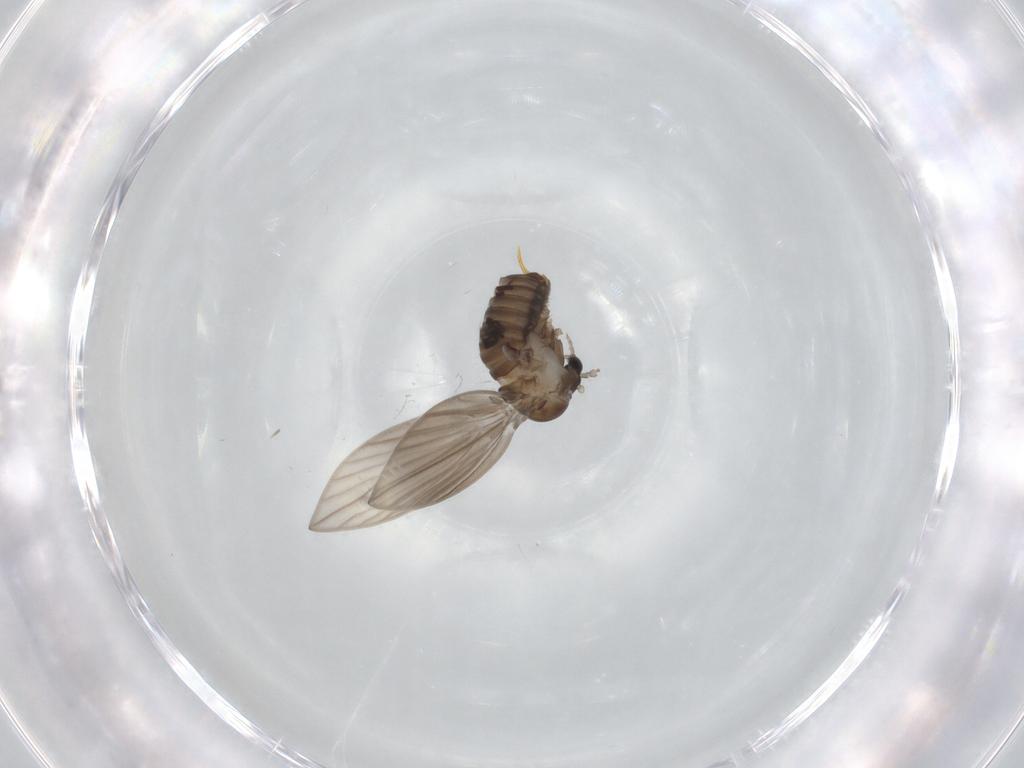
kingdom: Animalia
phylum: Arthropoda
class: Insecta
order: Diptera
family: Psychodidae
